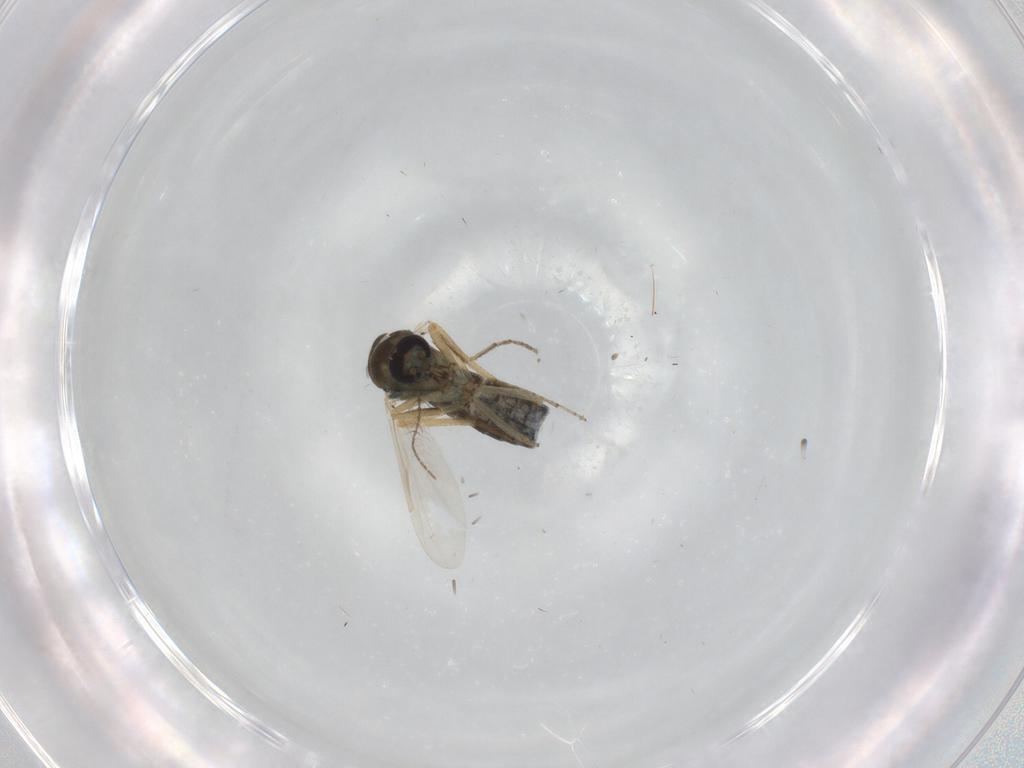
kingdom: Animalia
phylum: Arthropoda
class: Insecta
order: Diptera
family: Ceratopogonidae
